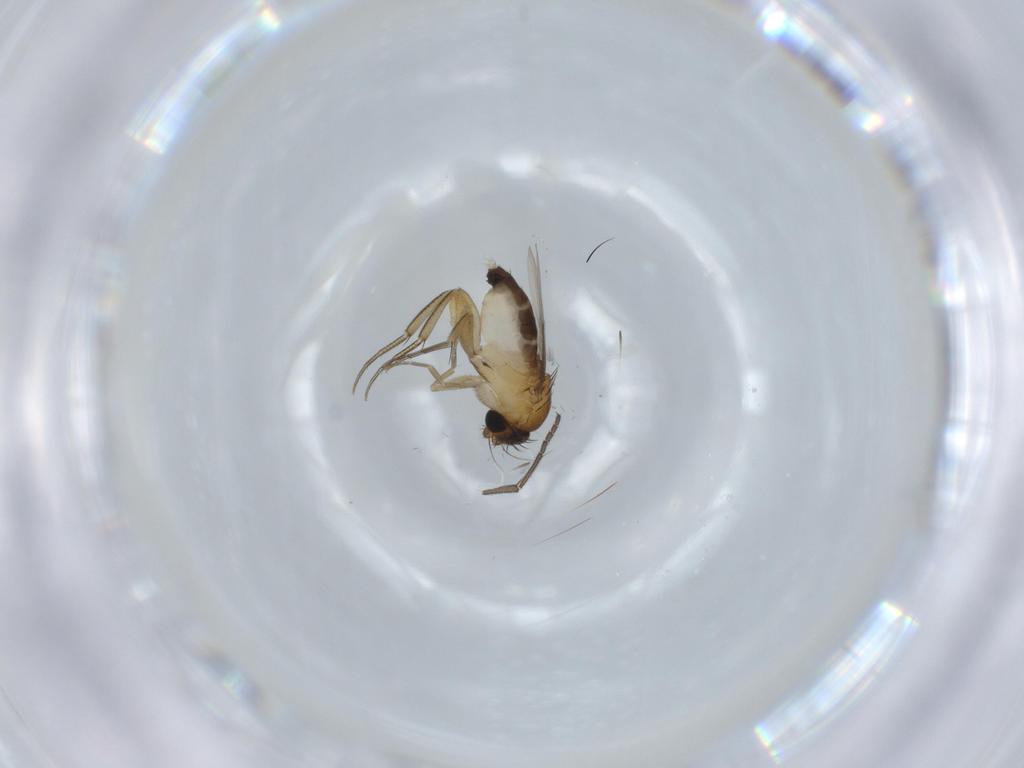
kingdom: Animalia
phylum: Arthropoda
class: Insecta
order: Diptera
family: Phoridae
